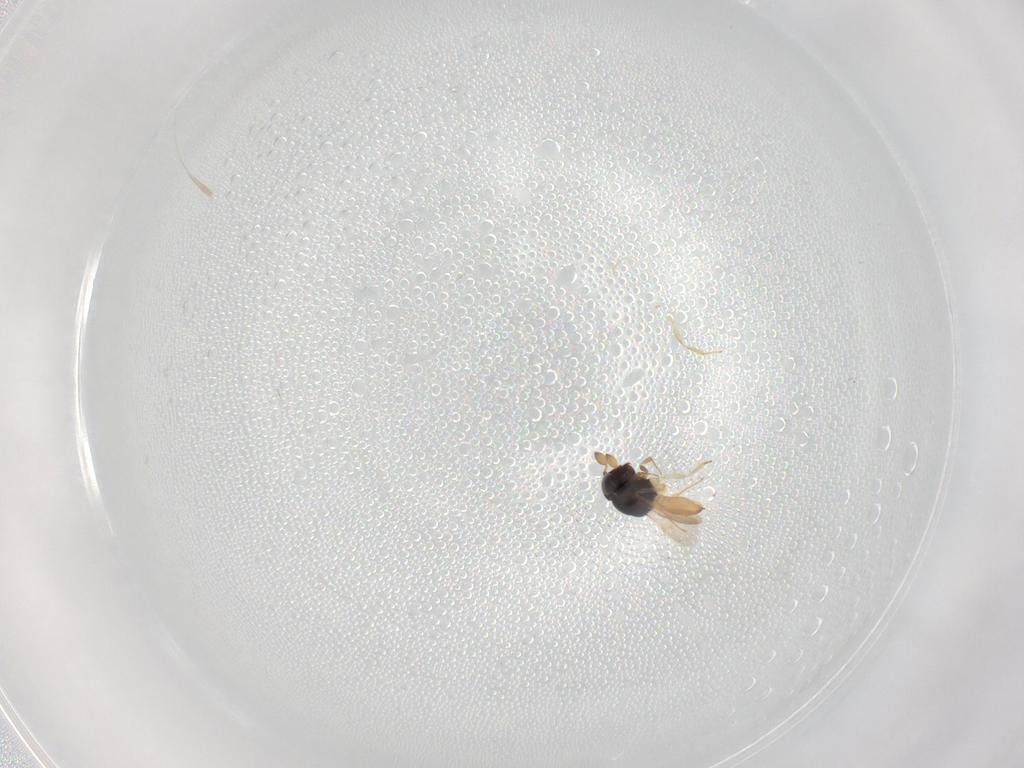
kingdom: Animalia
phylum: Arthropoda
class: Insecta
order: Hymenoptera
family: Scelionidae
